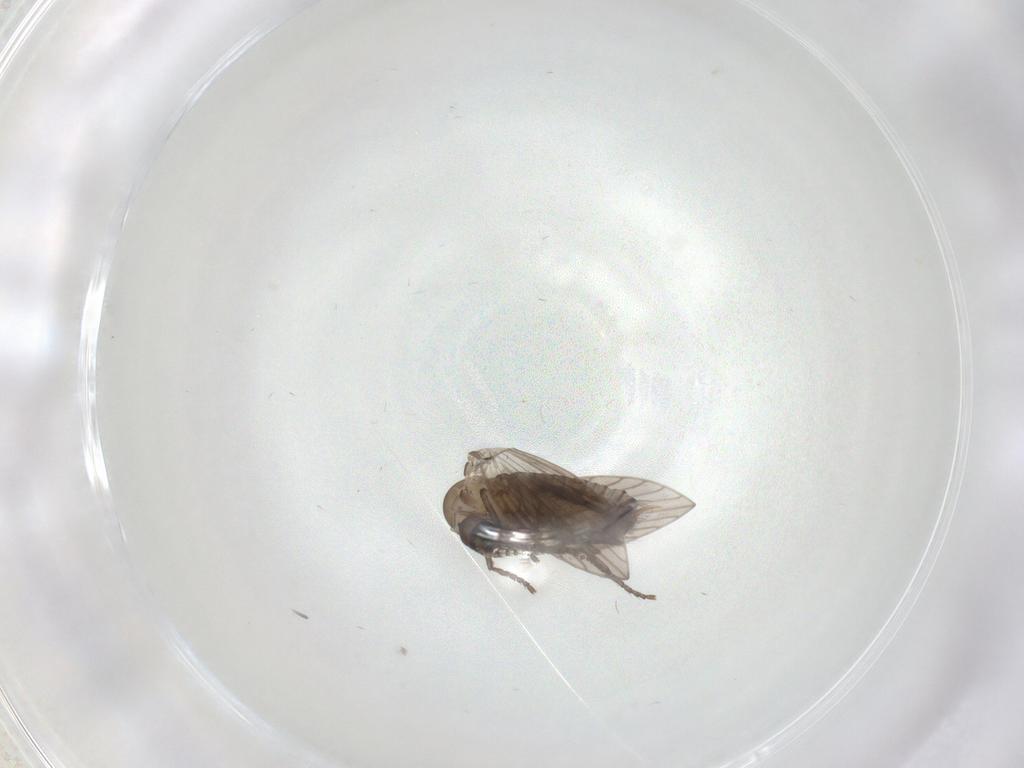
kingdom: Animalia
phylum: Arthropoda
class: Insecta
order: Diptera
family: Psychodidae
